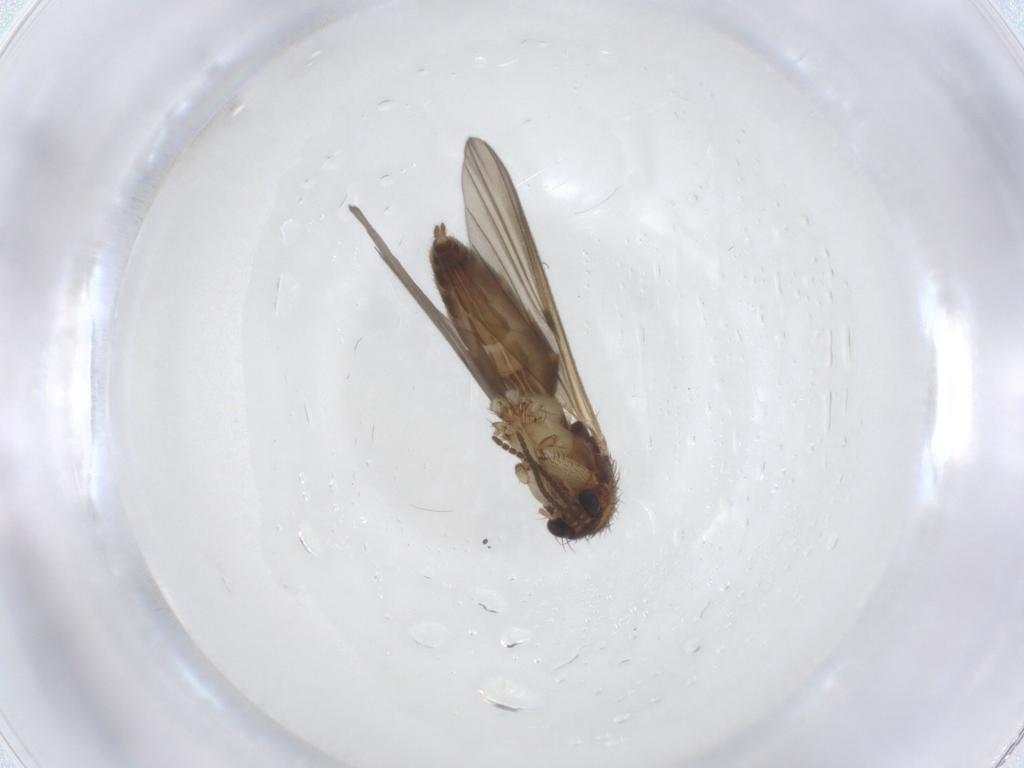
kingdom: Animalia
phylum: Arthropoda
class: Insecta
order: Diptera
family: Mycetophilidae
